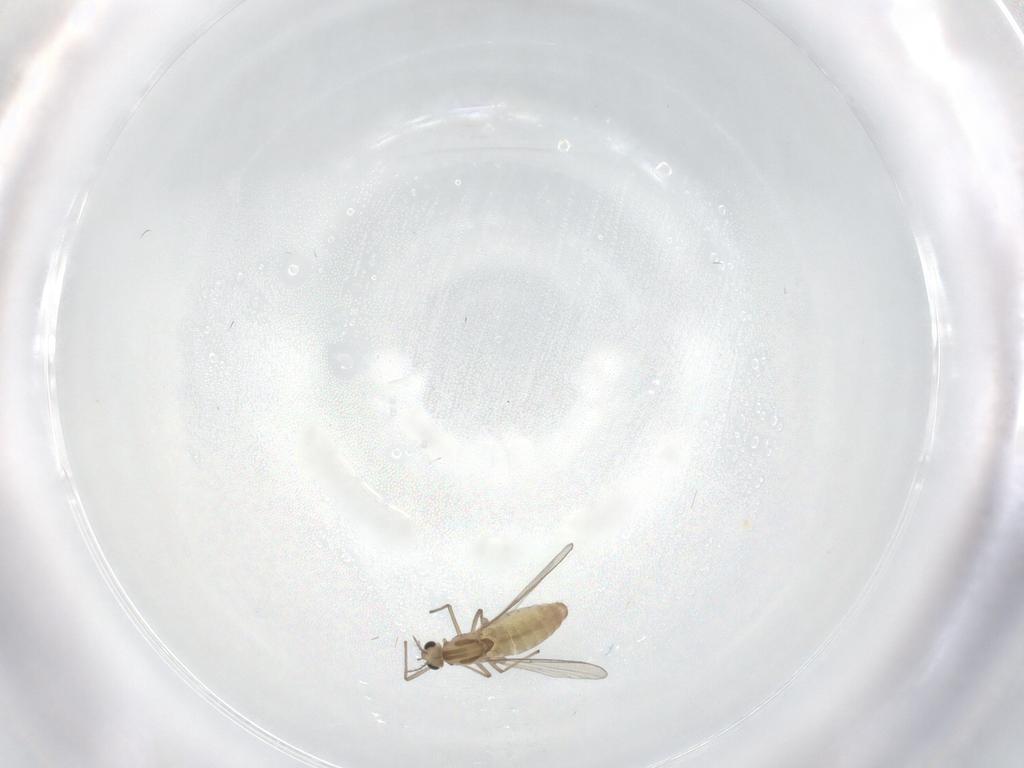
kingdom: Animalia
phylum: Arthropoda
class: Insecta
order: Diptera
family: Chironomidae
